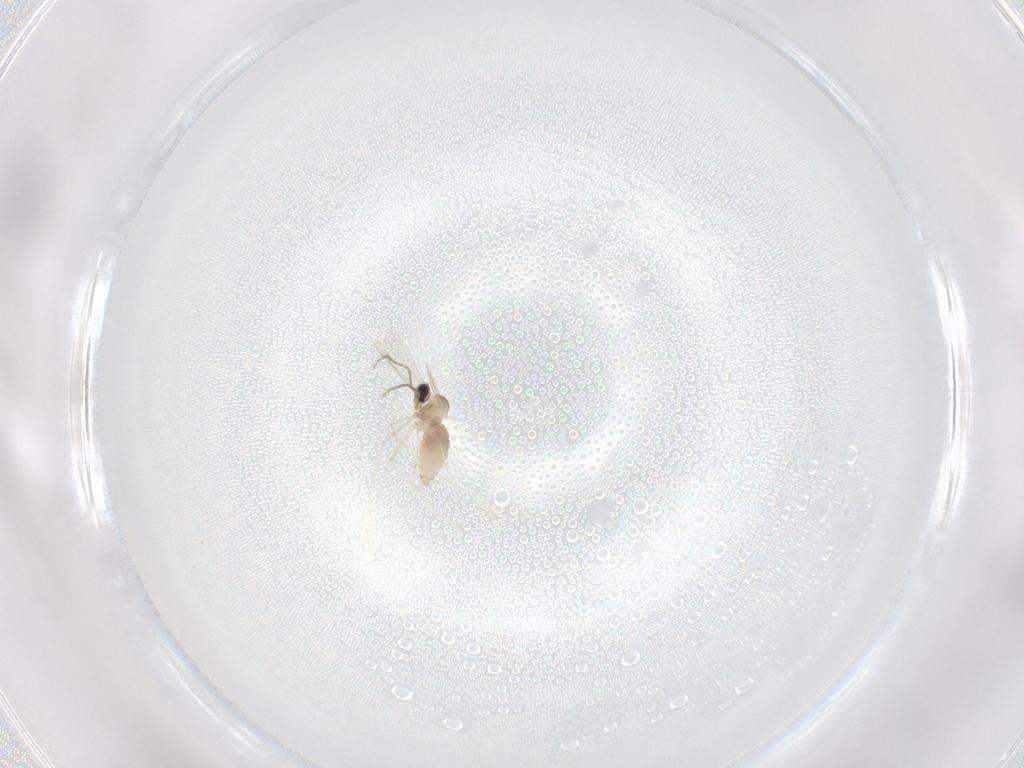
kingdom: Animalia
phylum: Arthropoda
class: Insecta
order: Diptera
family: Cecidomyiidae
